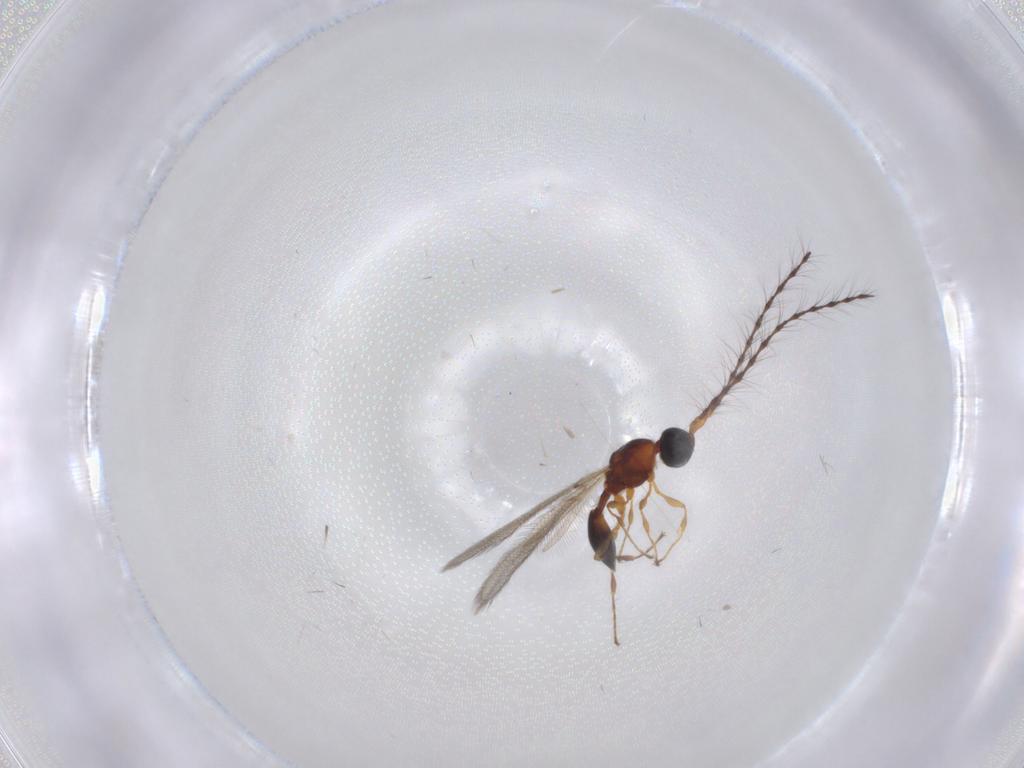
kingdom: Animalia
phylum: Arthropoda
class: Insecta
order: Hymenoptera
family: Diapriidae
